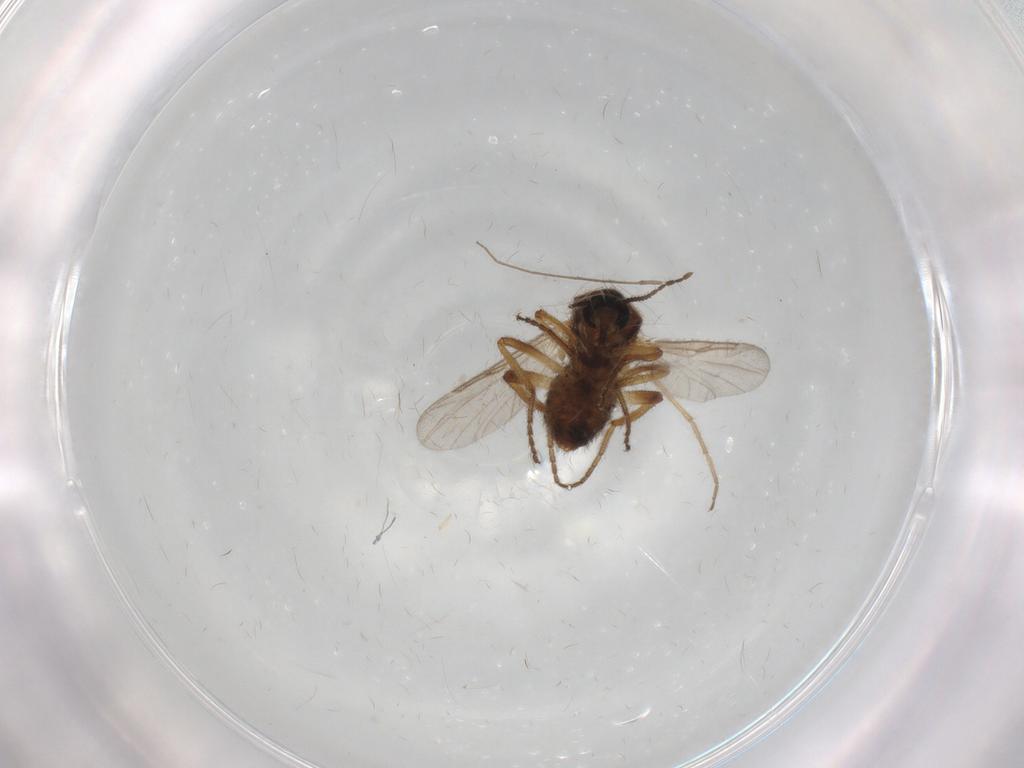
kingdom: Animalia
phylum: Arthropoda
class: Insecta
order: Diptera
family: Ceratopogonidae
